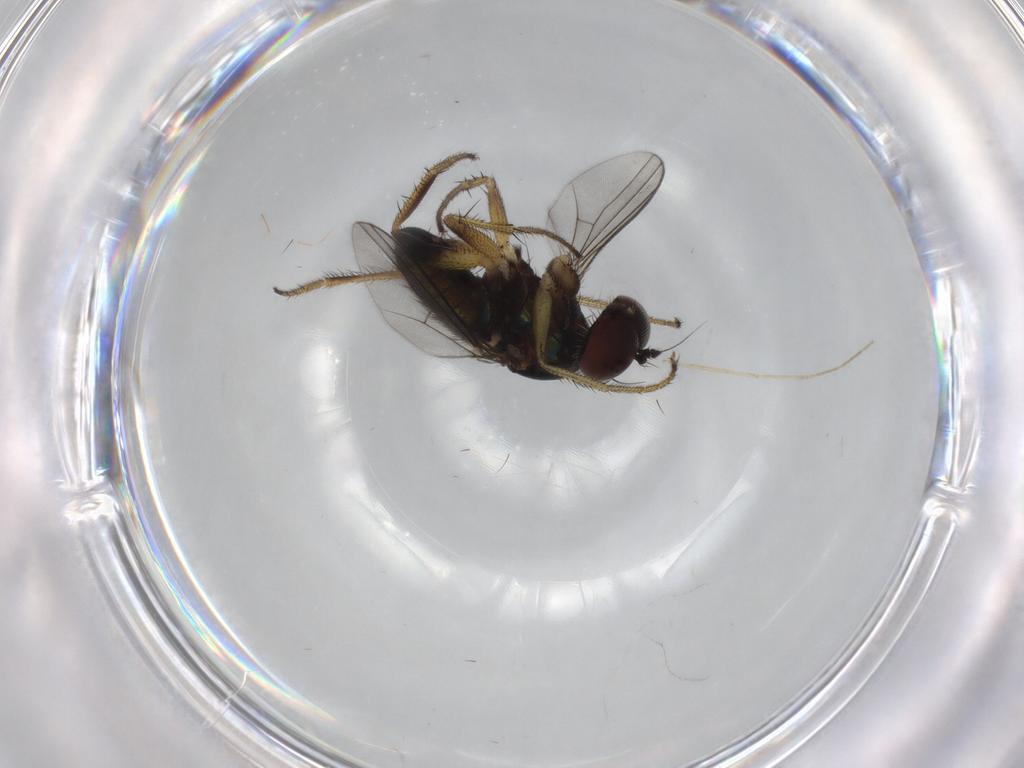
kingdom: Animalia
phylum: Arthropoda
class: Insecta
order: Diptera
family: Dolichopodidae
